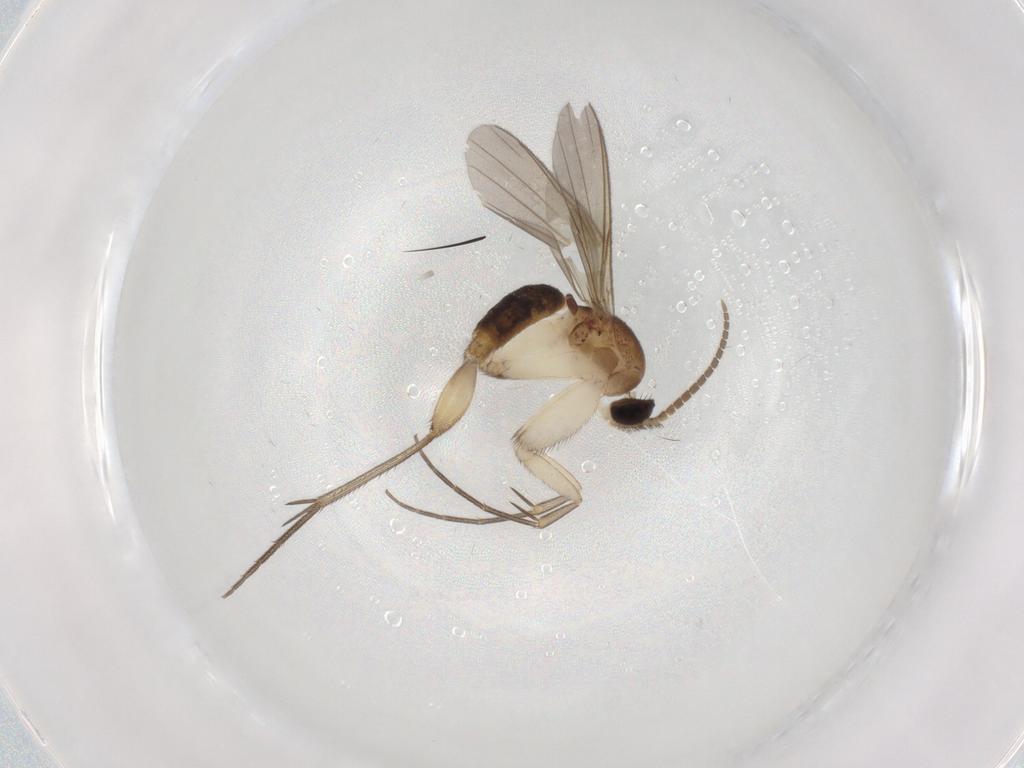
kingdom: Animalia
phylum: Arthropoda
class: Insecta
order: Diptera
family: Mycetophilidae
